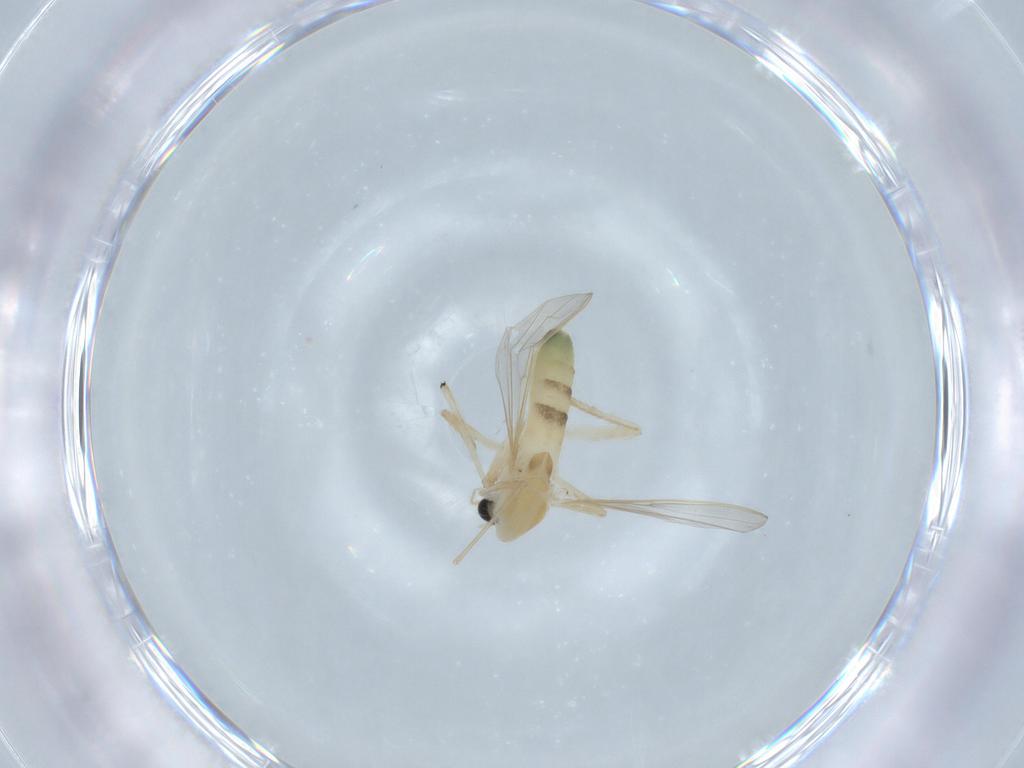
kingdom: Animalia
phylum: Arthropoda
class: Insecta
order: Diptera
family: Chironomidae
